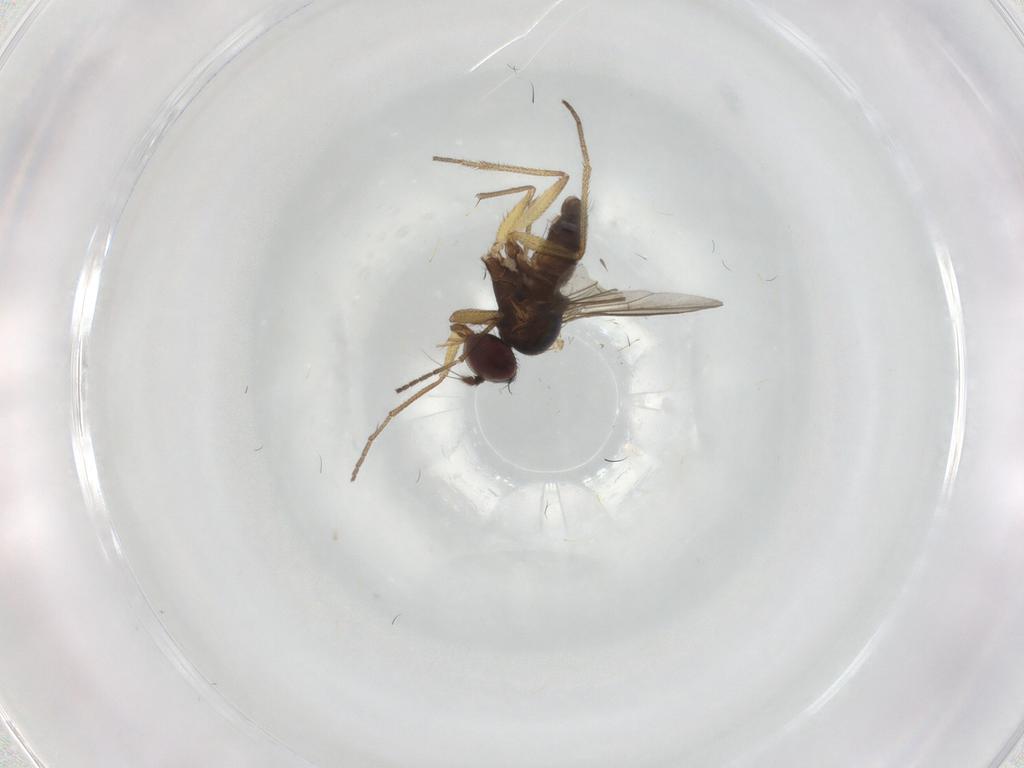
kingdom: Animalia
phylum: Arthropoda
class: Insecta
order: Diptera
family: Dolichopodidae
